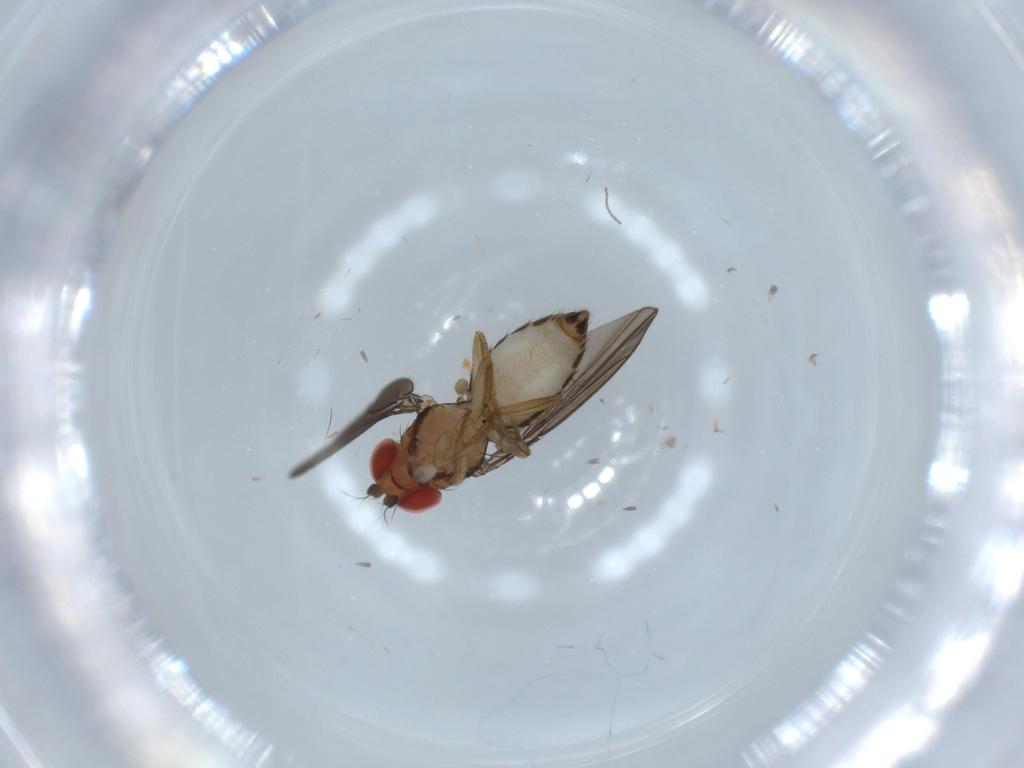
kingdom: Animalia
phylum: Arthropoda
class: Insecta
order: Diptera
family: Drosophilidae
